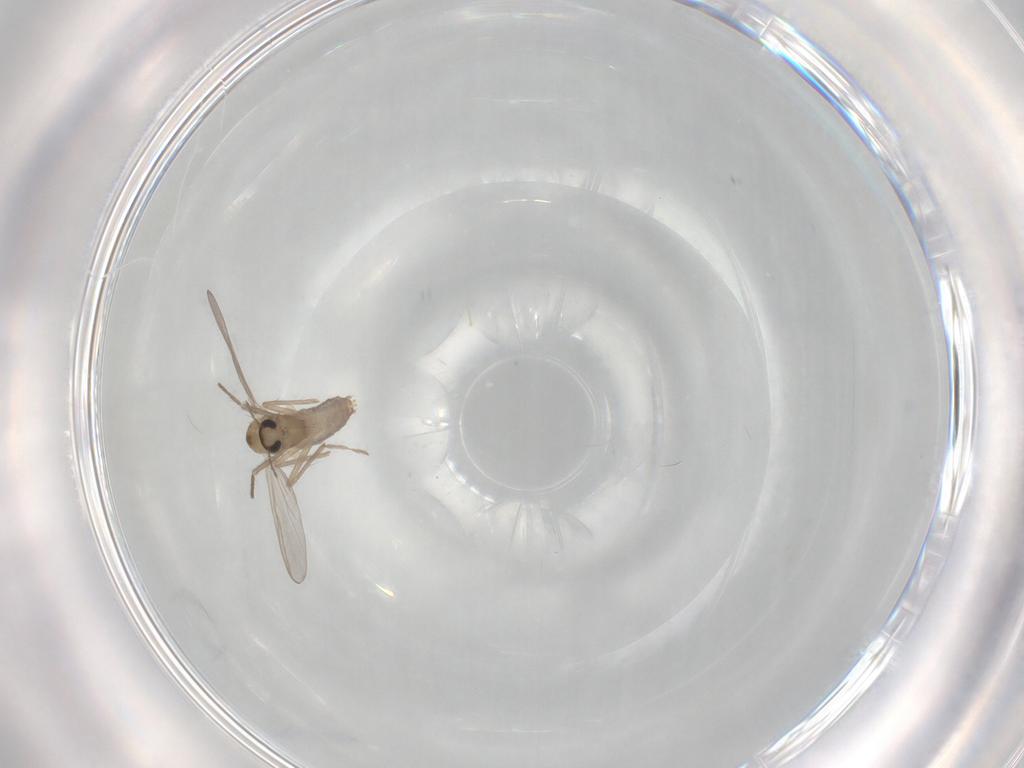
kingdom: Animalia
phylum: Arthropoda
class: Insecta
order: Diptera
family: Chironomidae
